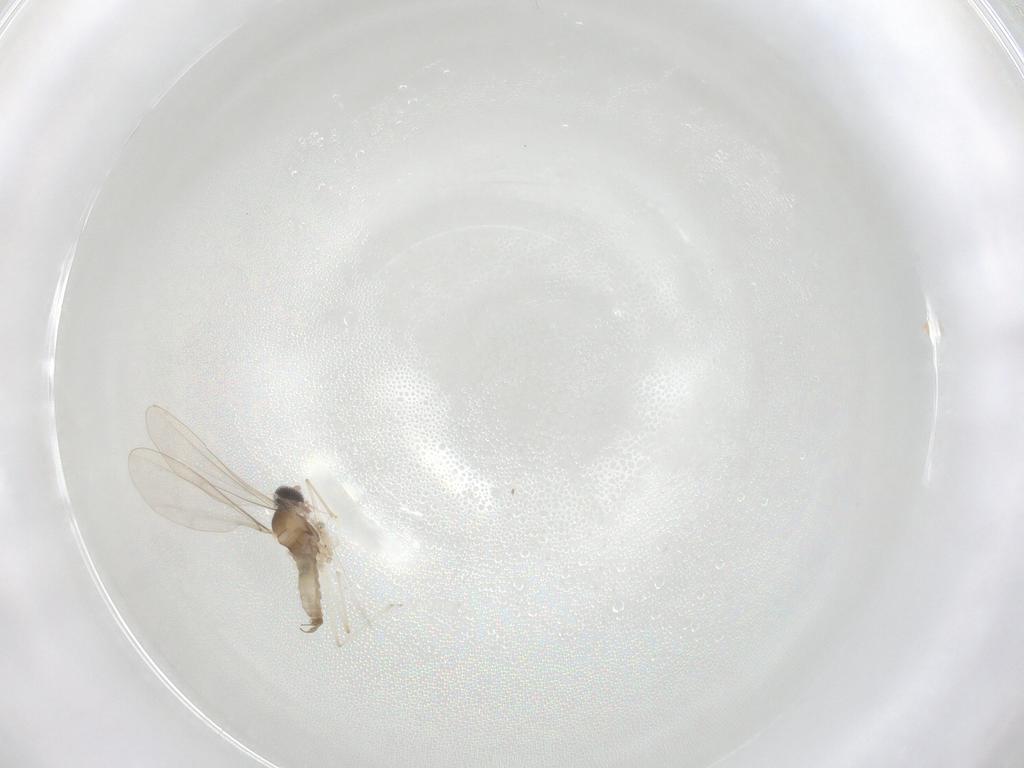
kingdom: Animalia
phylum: Arthropoda
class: Insecta
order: Diptera
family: Cecidomyiidae
